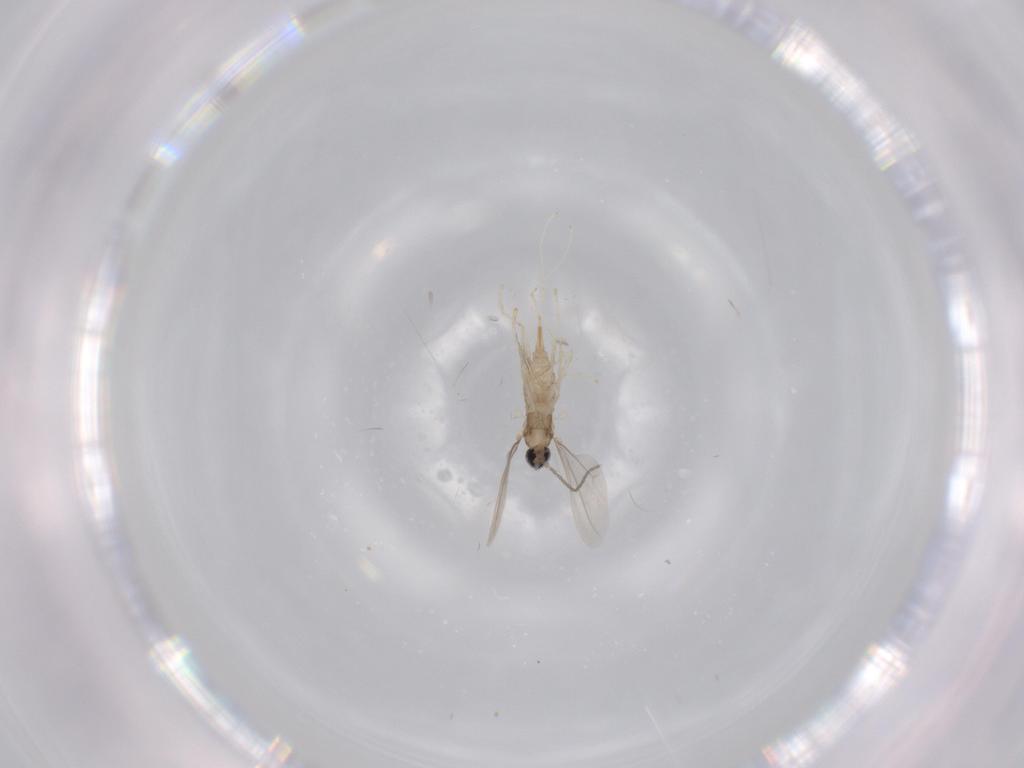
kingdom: Animalia
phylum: Arthropoda
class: Insecta
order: Diptera
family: Cecidomyiidae
